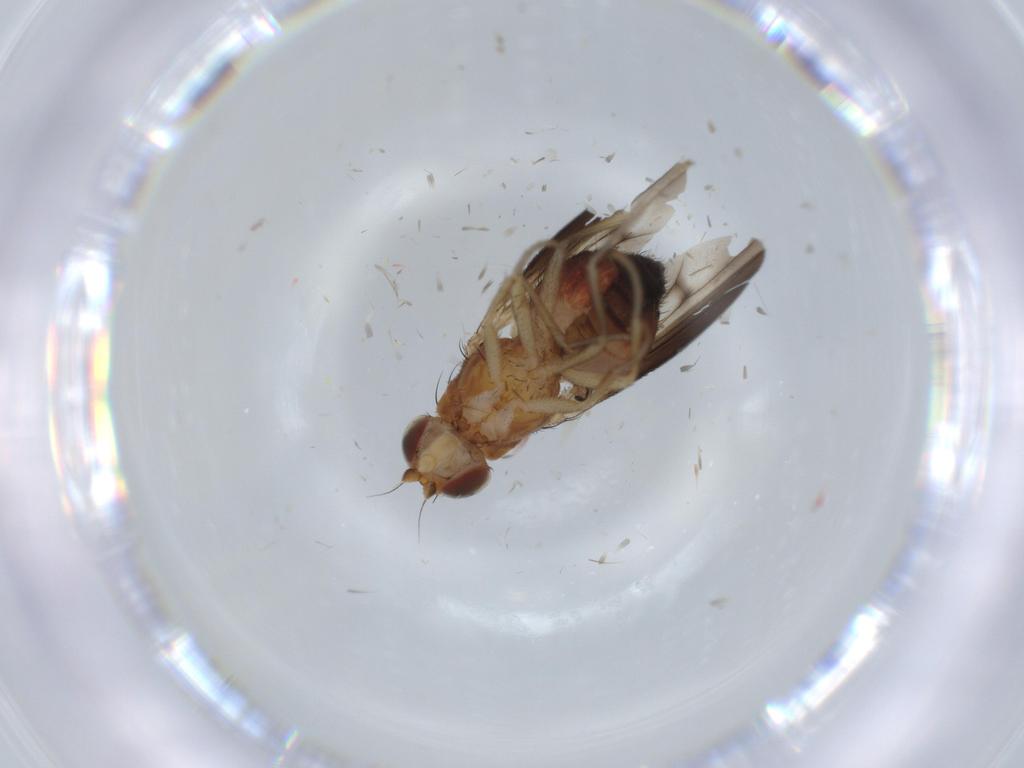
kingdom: Animalia
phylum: Arthropoda
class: Insecta
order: Diptera
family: Heleomyzidae
